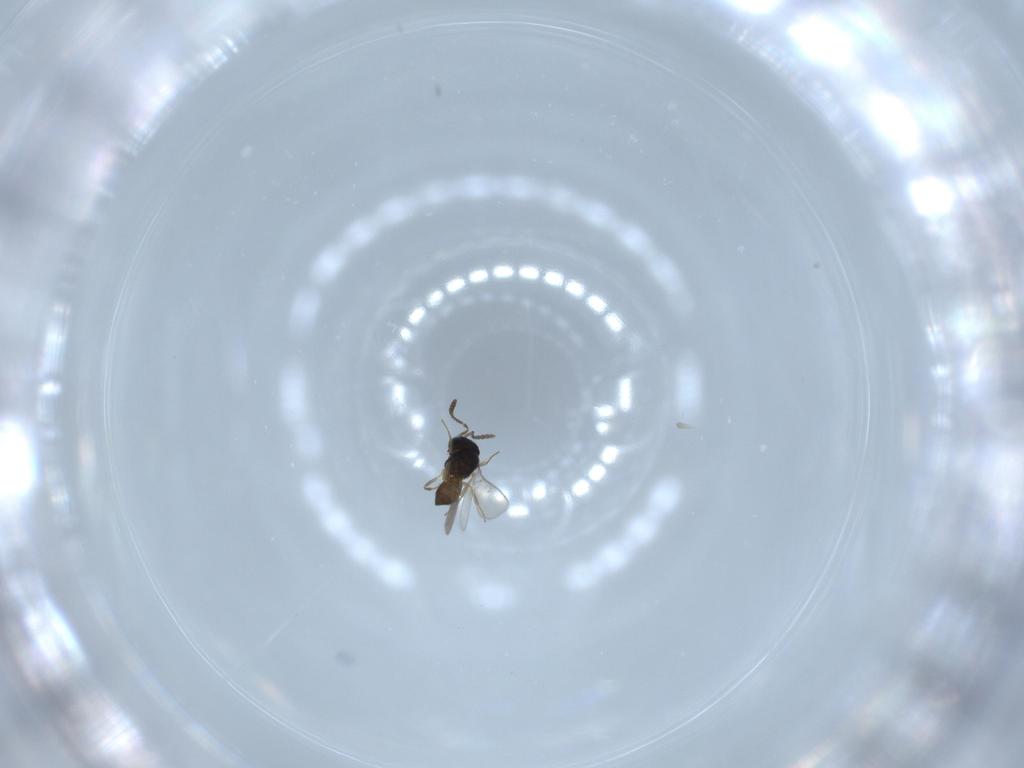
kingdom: Animalia
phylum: Arthropoda
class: Insecta
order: Hymenoptera
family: Scelionidae
